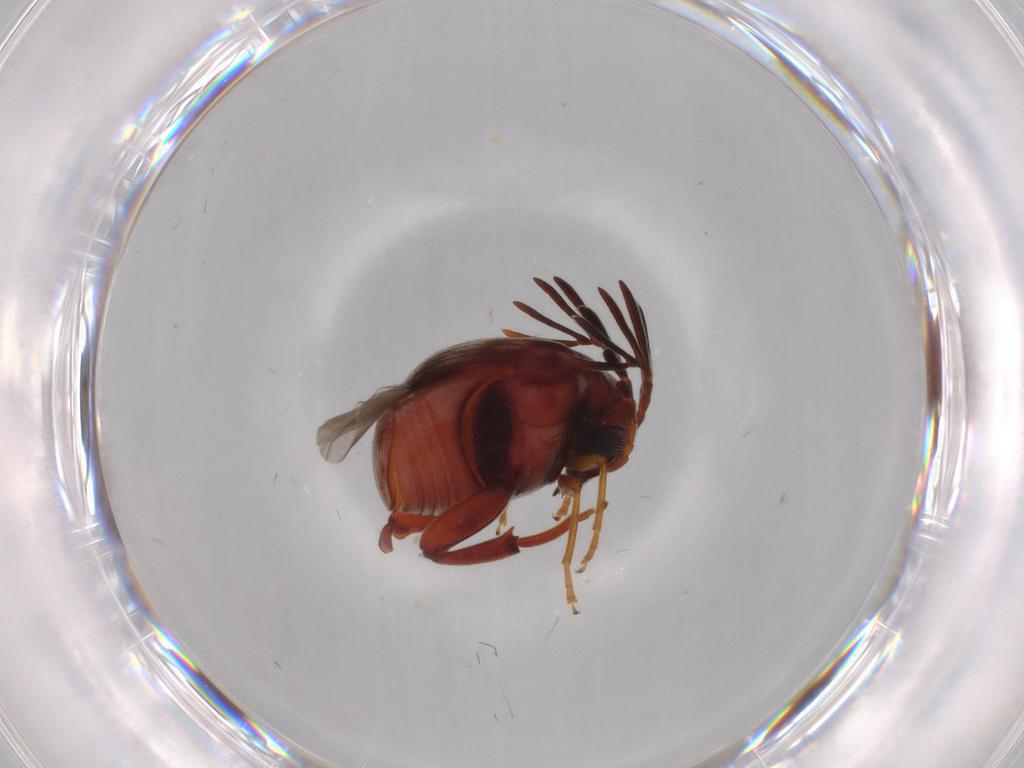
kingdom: Animalia
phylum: Arthropoda
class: Insecta
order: Coleoptera
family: Chrysomelidae
